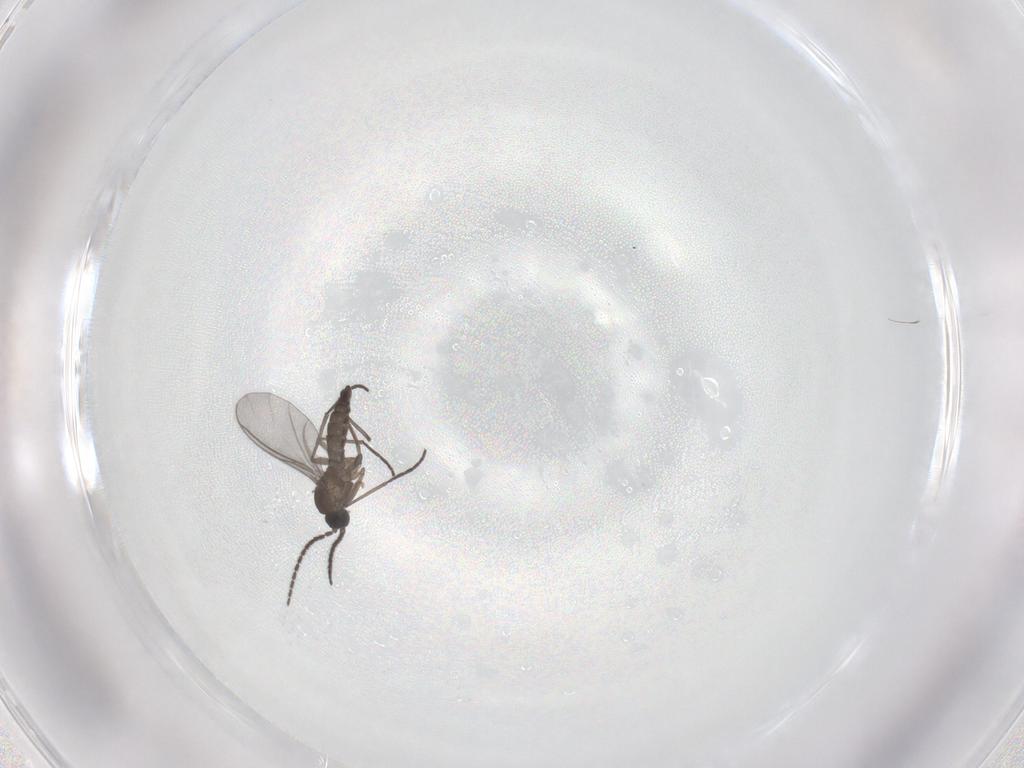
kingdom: Animalia
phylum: Arthropoda
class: Insecta
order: Diptera
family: Sciaridae
